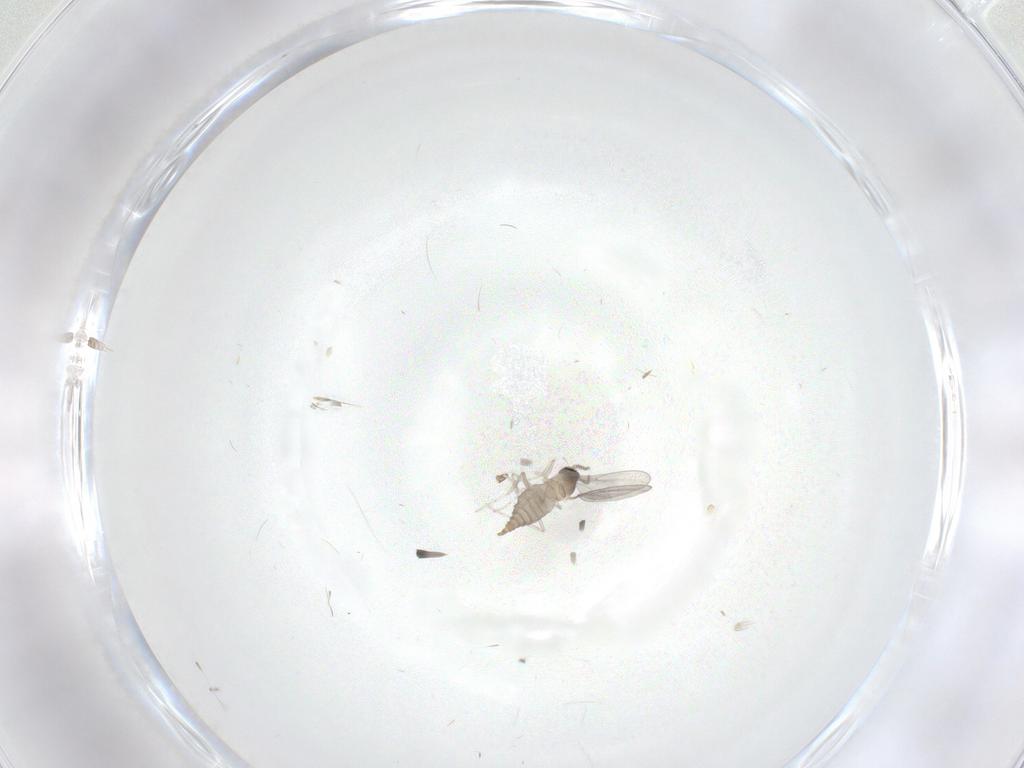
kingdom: Animalia
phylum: Arthropoda
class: Insecta
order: Diptera
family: Cecidomyiidae
